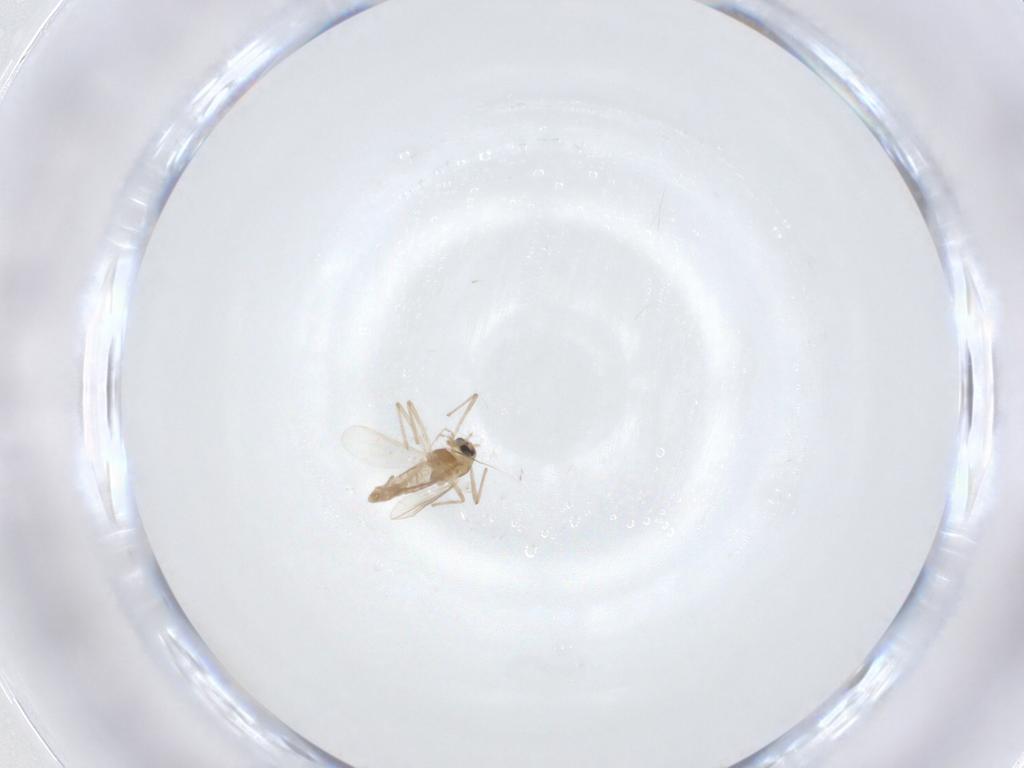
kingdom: Animalia
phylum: Arthropoda
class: Insecta
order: Diptera
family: Chironomidae
